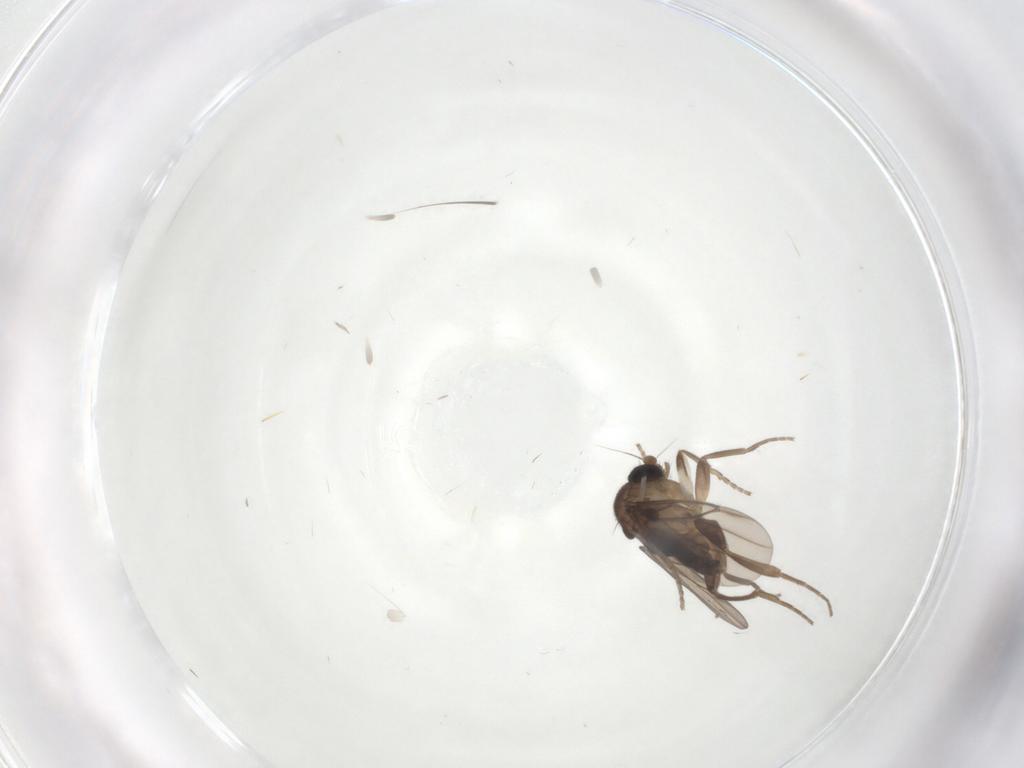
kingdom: Animalia
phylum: Arthropoda
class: Insecta
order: Diptera
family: Psychodidae
